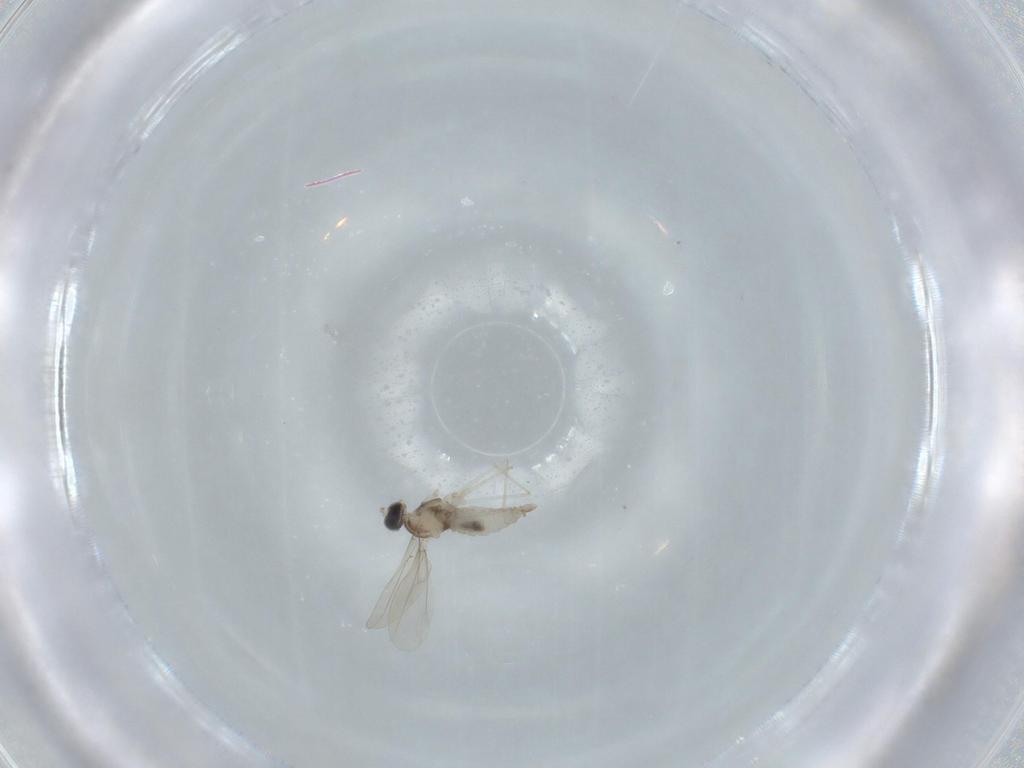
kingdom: Animalia
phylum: Arthropoda
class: Insecta
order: Diptera
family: Cecidomyiidae
